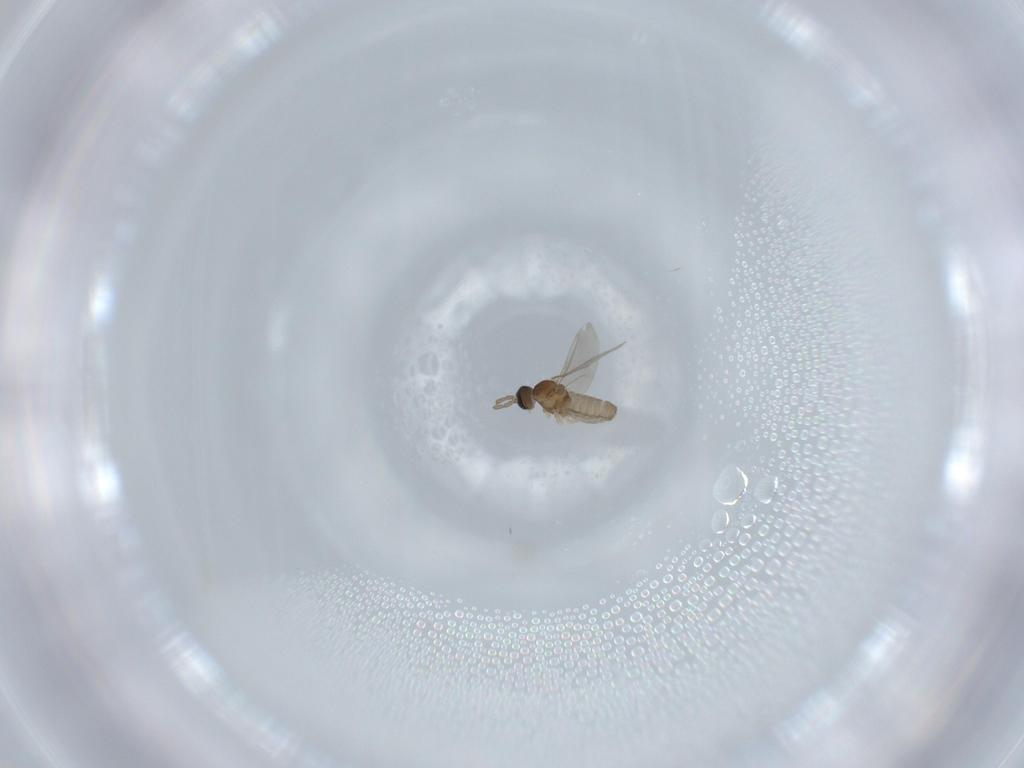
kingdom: Animalia
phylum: Arthropoda
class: Insecta
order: Diptera
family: Cecidomyiidae
